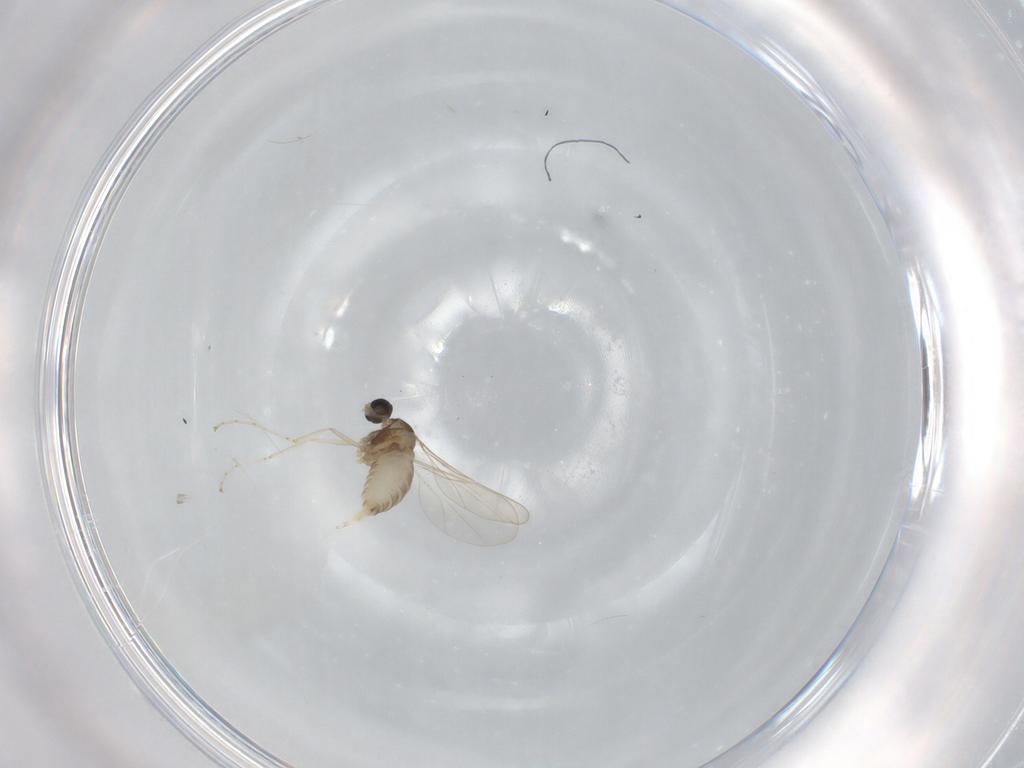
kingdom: Animalia
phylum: Arthropoda
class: Insecta
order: Diptera
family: Cecidomyiidae
